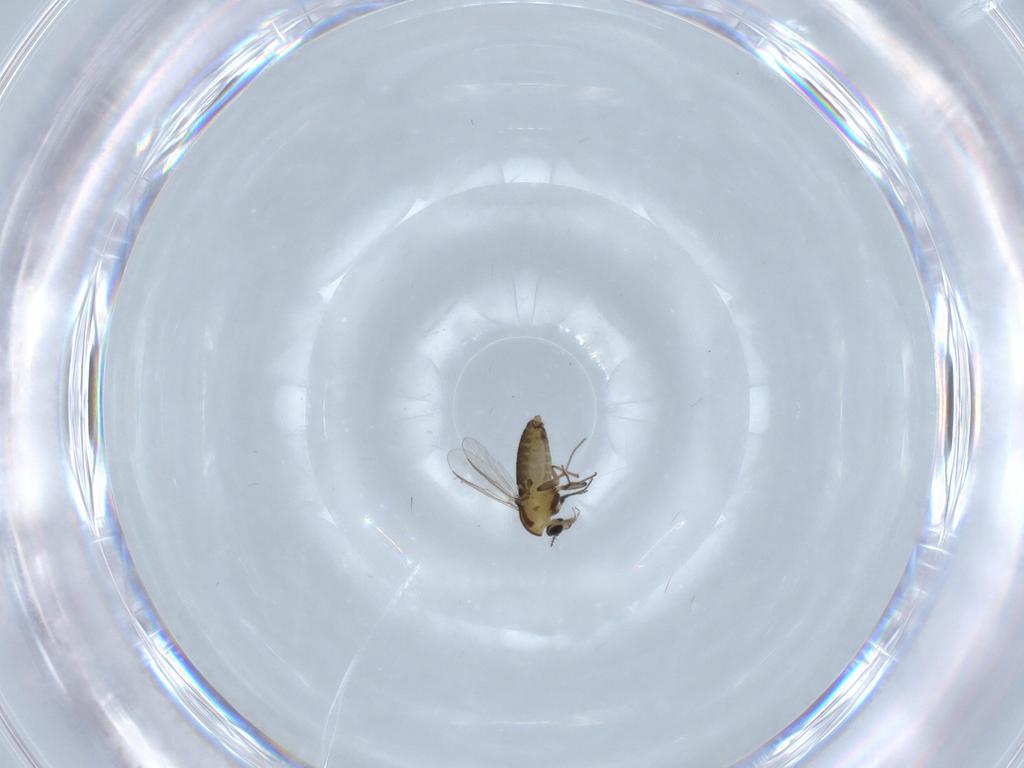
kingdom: Animalia
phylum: Arthropoda
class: Insecta
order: Diptera
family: Chironomidae
